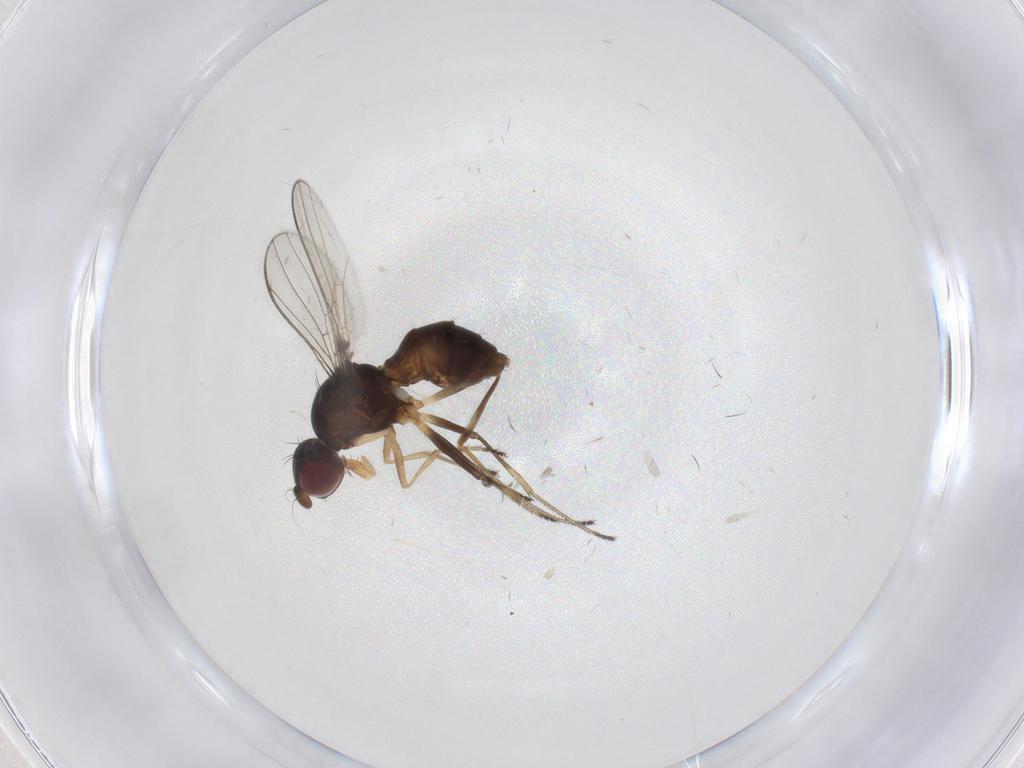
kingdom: Animalia
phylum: Arthropoda
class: Insecta
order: Diptera
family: Sepsidae
